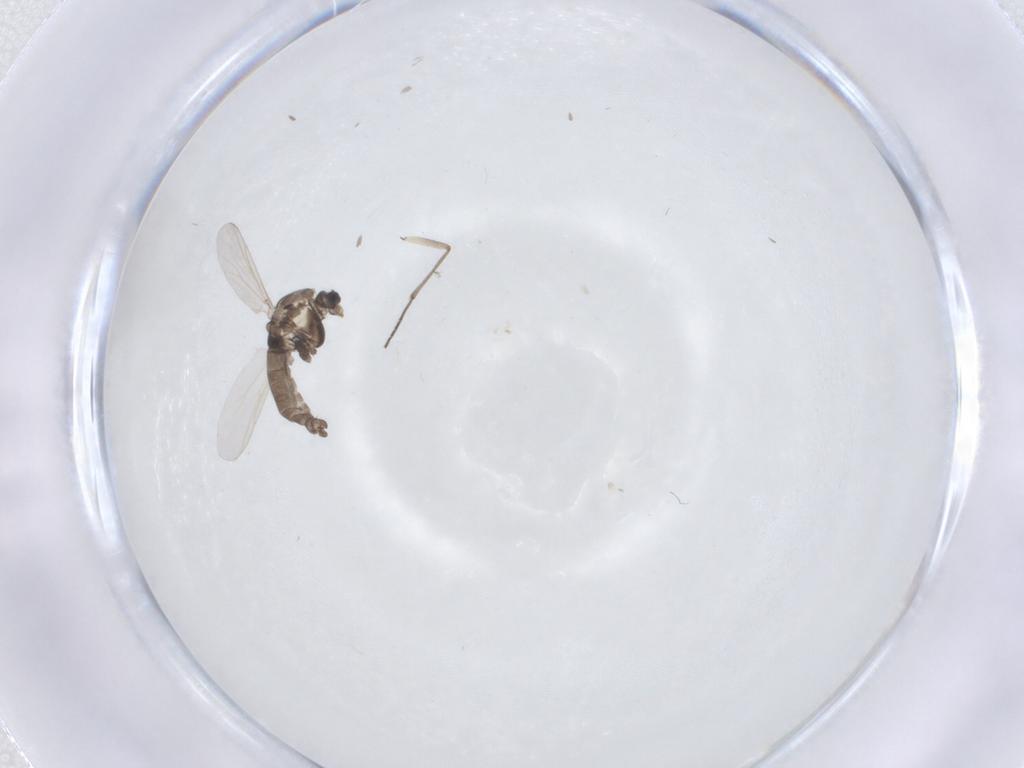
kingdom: Animalia
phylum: Arthropoda
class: Insecta
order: Diptera
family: Sciaridae
